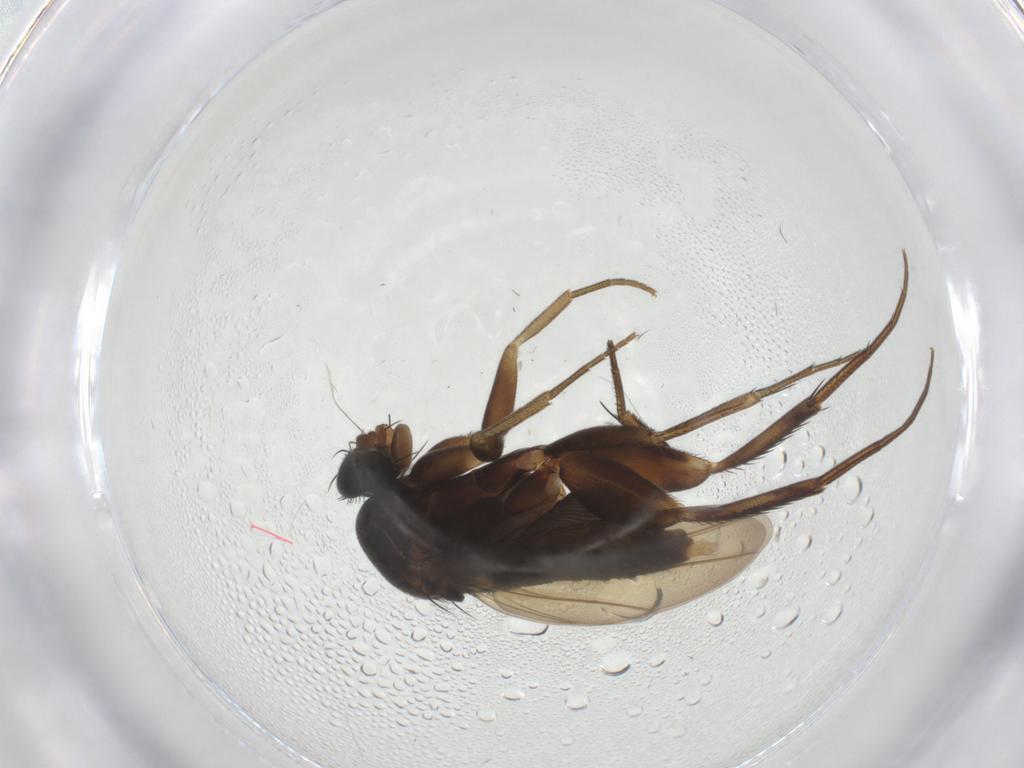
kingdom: Animalia
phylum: Arthropoda
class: Insecta
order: Diptera
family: Phoridae
